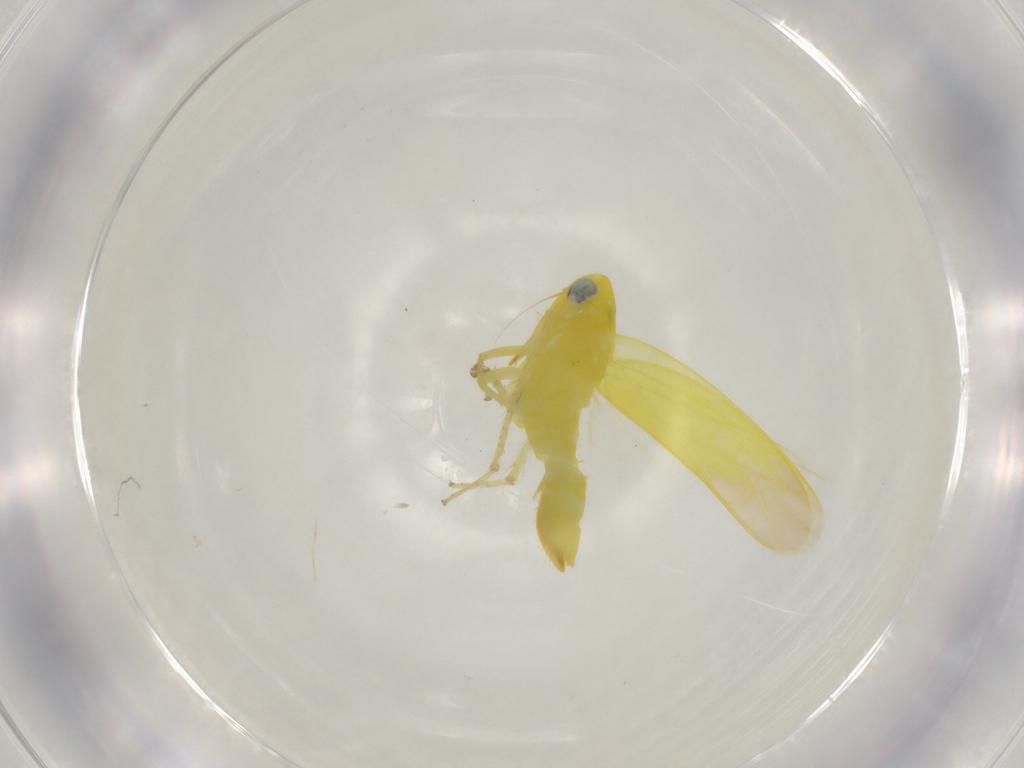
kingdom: Animalia
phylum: Arthropoda
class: Insecta
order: Hemiptera
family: Cicadellidae
